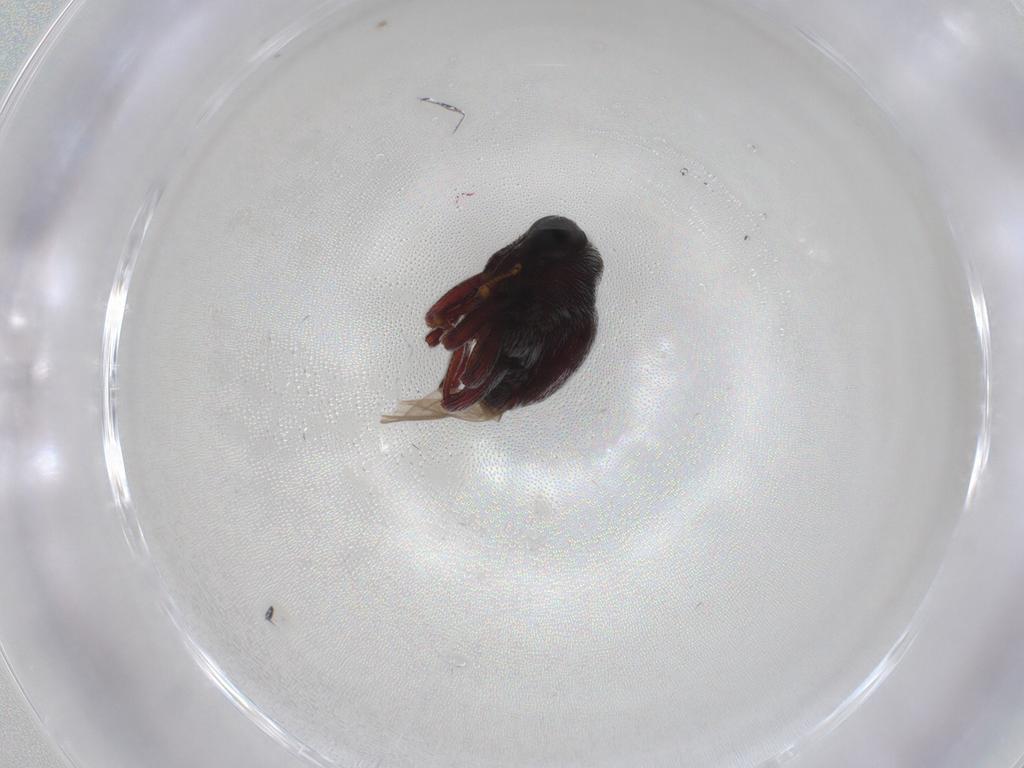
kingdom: Animalia
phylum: Arthropoda
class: Insecta
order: Coleoptera
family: Curculionidae
